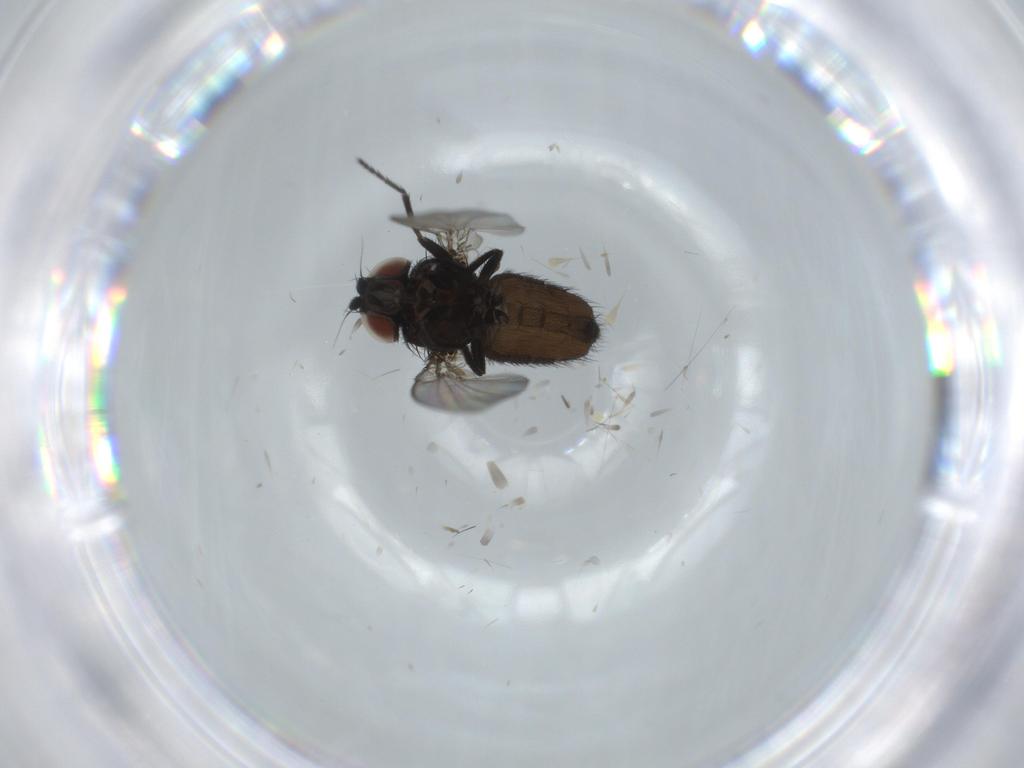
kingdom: Animalia
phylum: Arthropoda
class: Insecta
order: Diptera
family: Milichiidae
